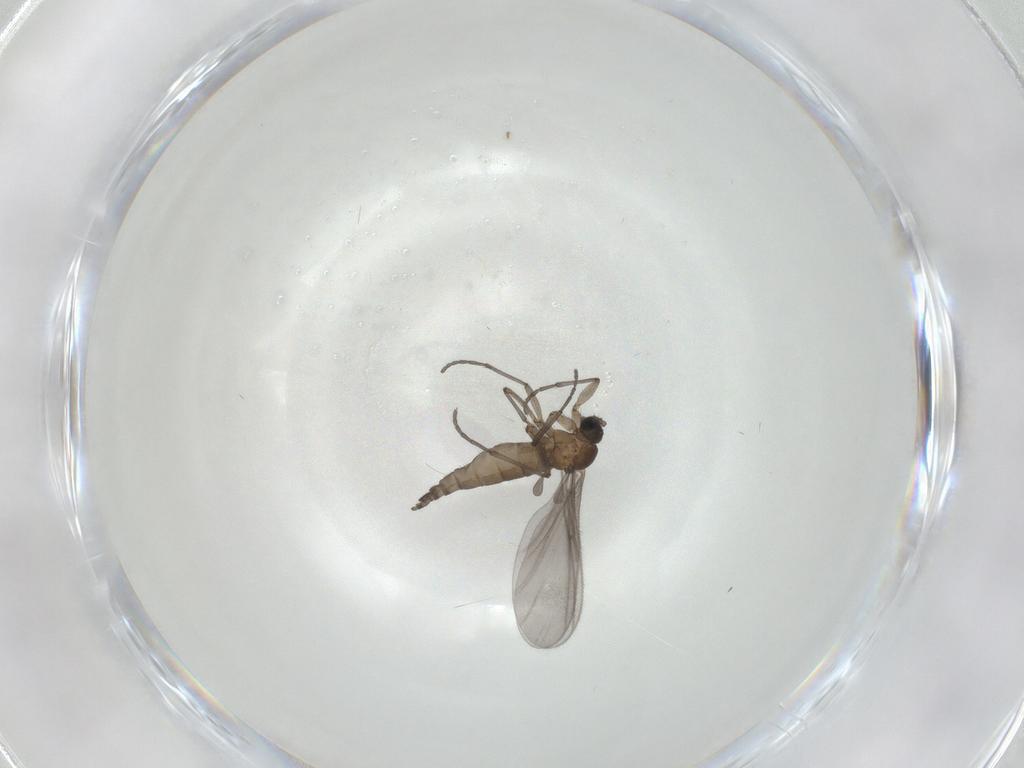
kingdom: Animalia
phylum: Arthropoda
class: Insecta
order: Diptera
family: Sciaridae
